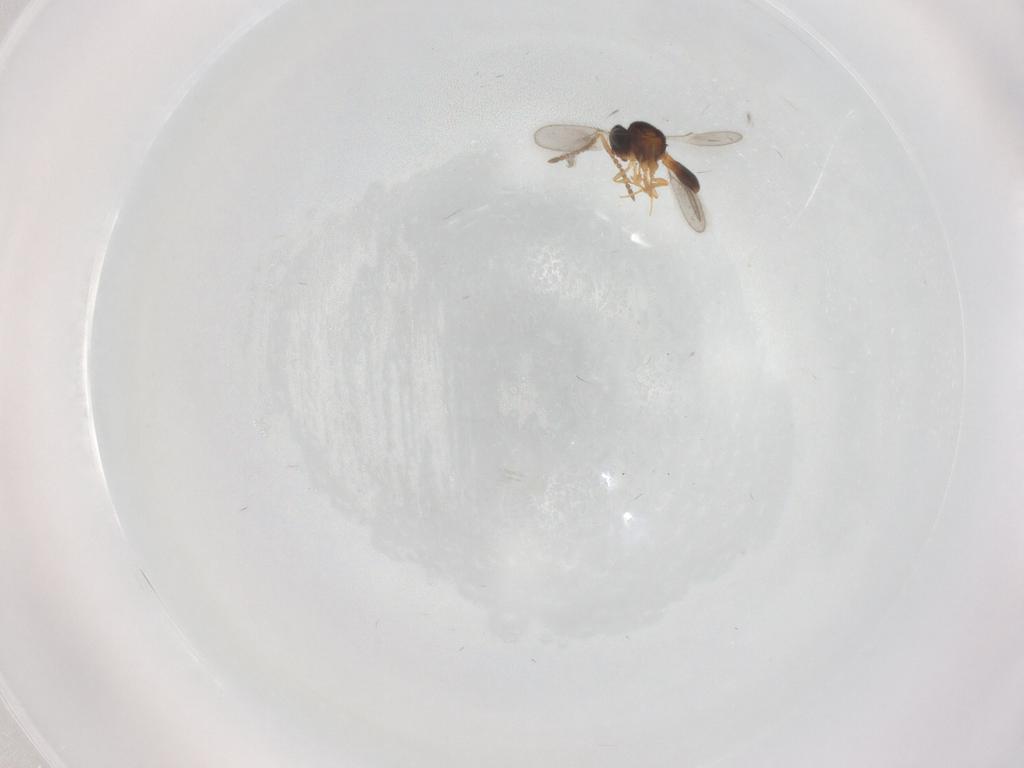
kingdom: Animalia
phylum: Arthropoda
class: Insecta
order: Hymenoptera
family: Scelionidae
